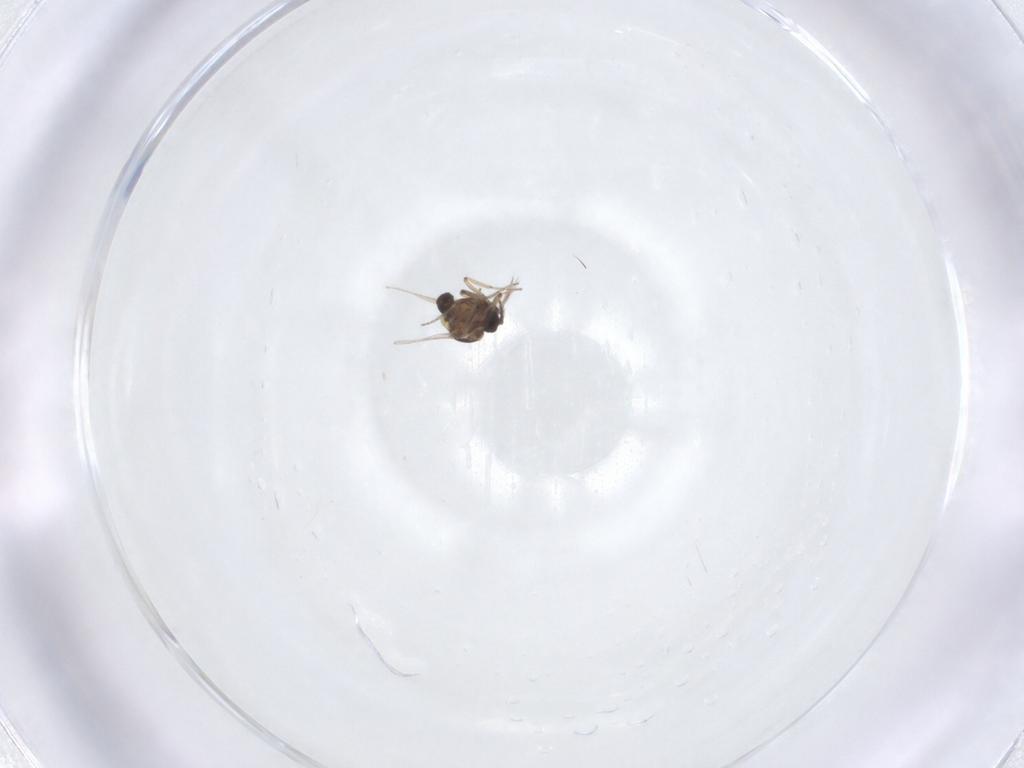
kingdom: Animalia
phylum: Arthropoda
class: Insecta
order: Diptera
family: Ceratopogonidae
